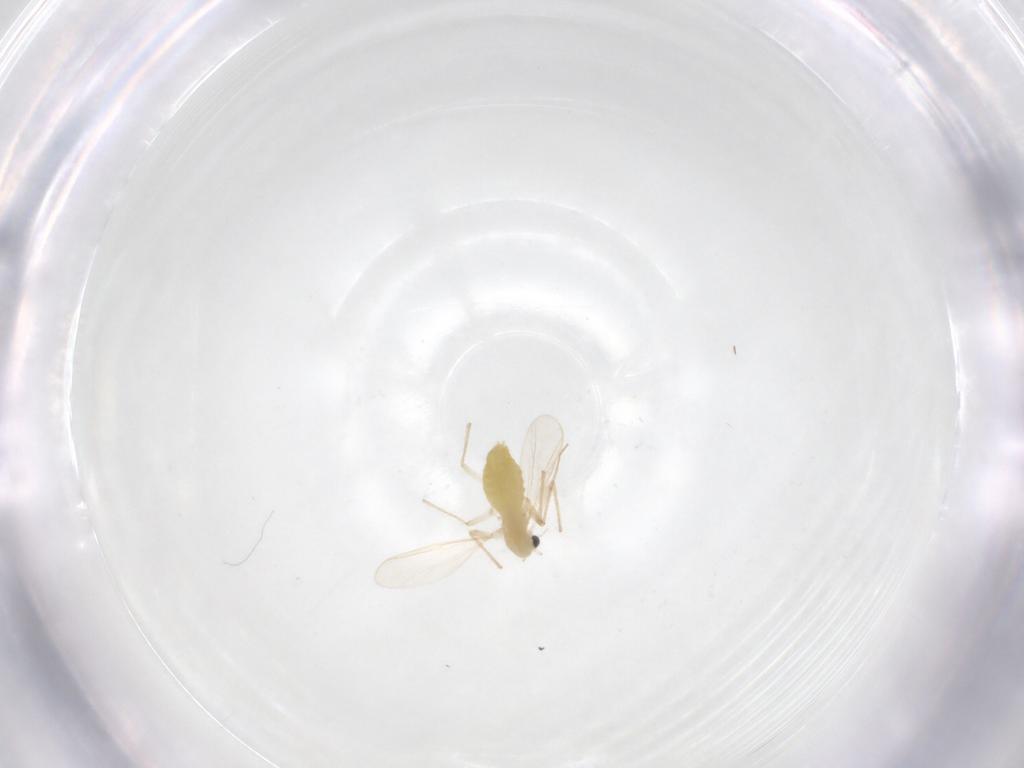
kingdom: Animalia
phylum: Arthropoda
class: Insecta
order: Diptera
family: Chironomidae
